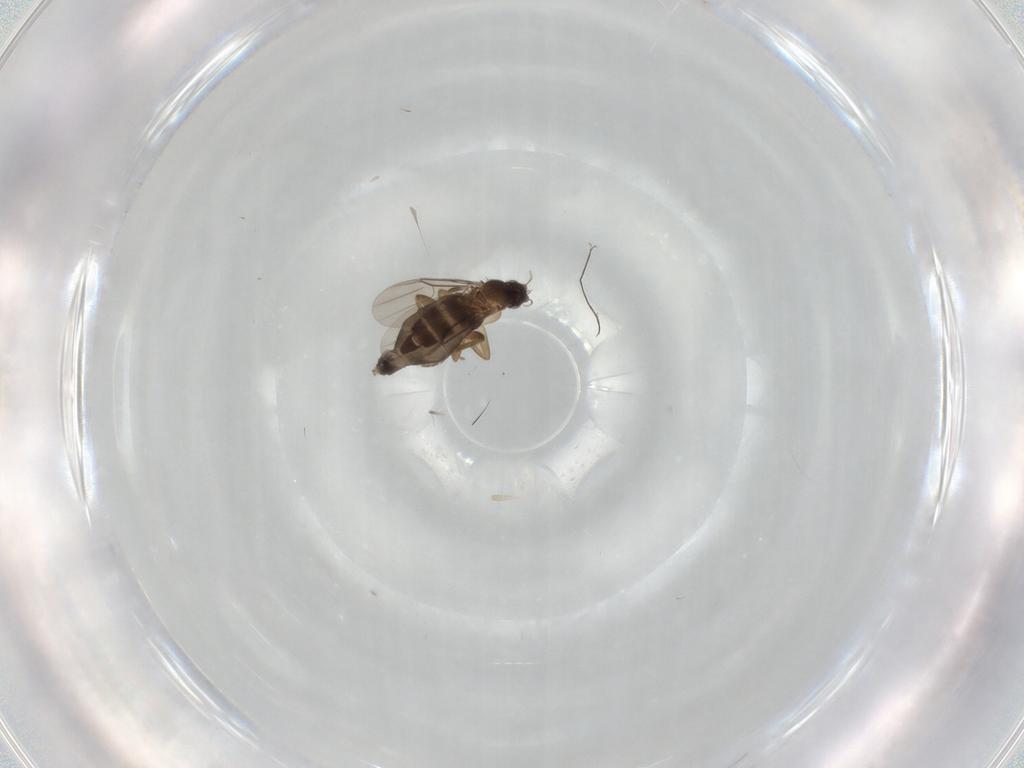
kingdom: Animalia
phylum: Arthropoda
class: Insecta
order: Diptera
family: Phoridae
